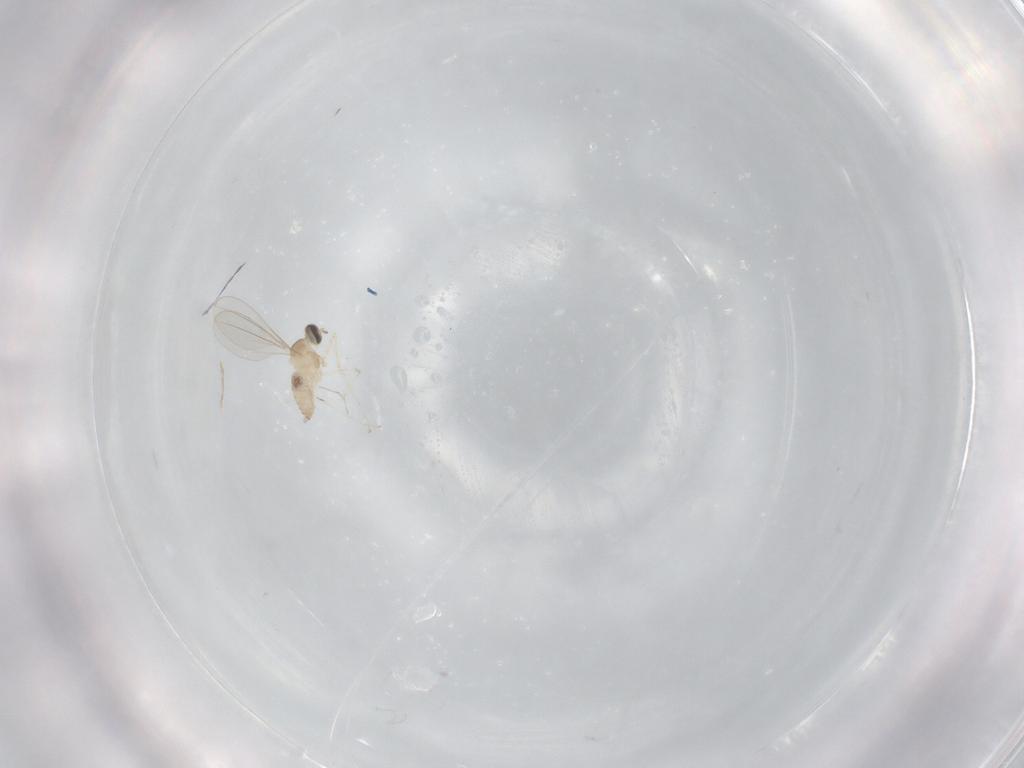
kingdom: Animalia
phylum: Arthropoda
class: Insecta
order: Diptera
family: Cecidomyiidae
